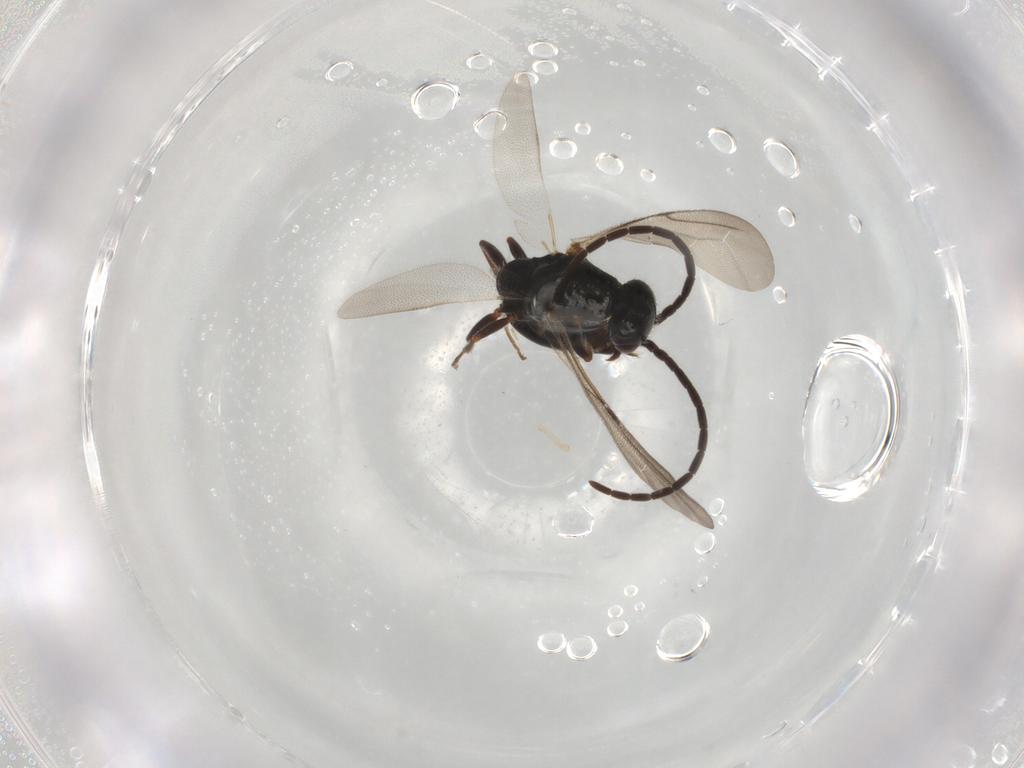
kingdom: Animalia
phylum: Arthropoda
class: Insecta
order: Hymenoptera
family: Bethylidae
